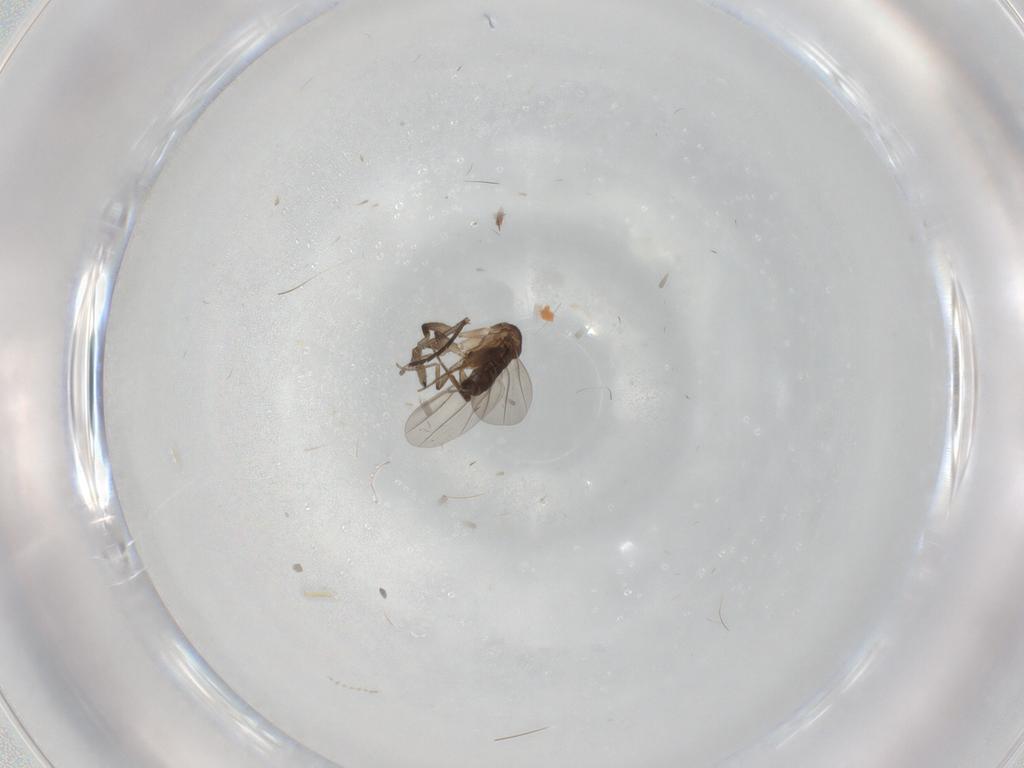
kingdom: Animalia
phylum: Arthropoda
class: Insecta
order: Diptera
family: Phoridae
